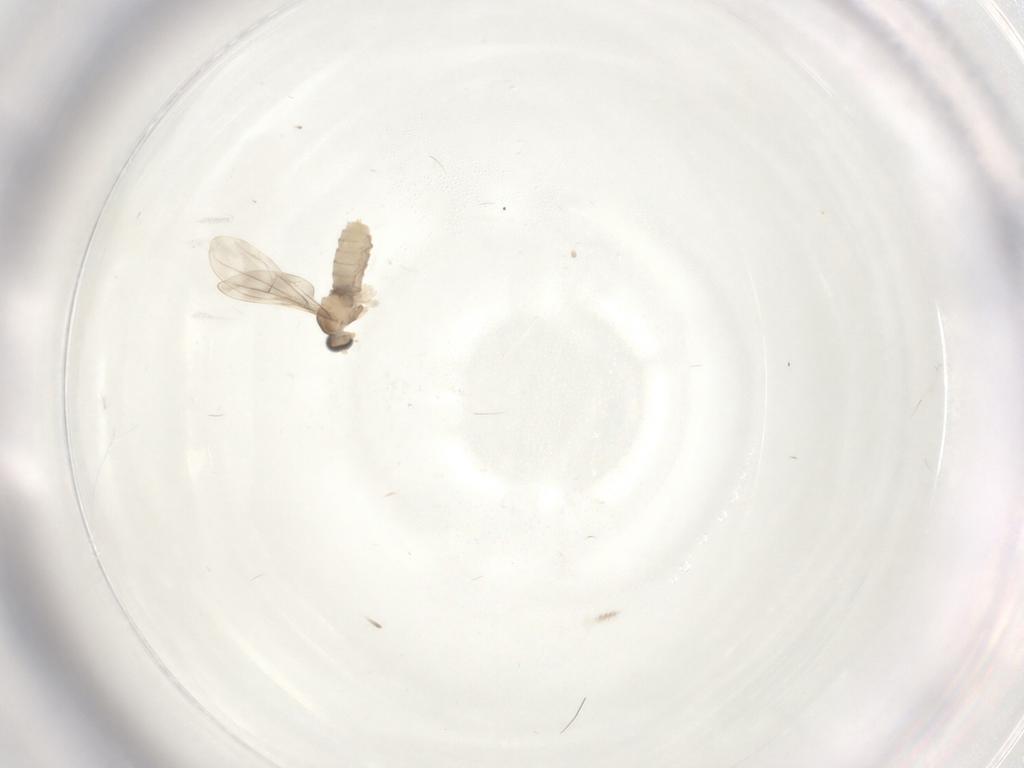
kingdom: Animalia
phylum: Arthropoda
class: Insecta
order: Diptera
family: Cecidomyiidae
